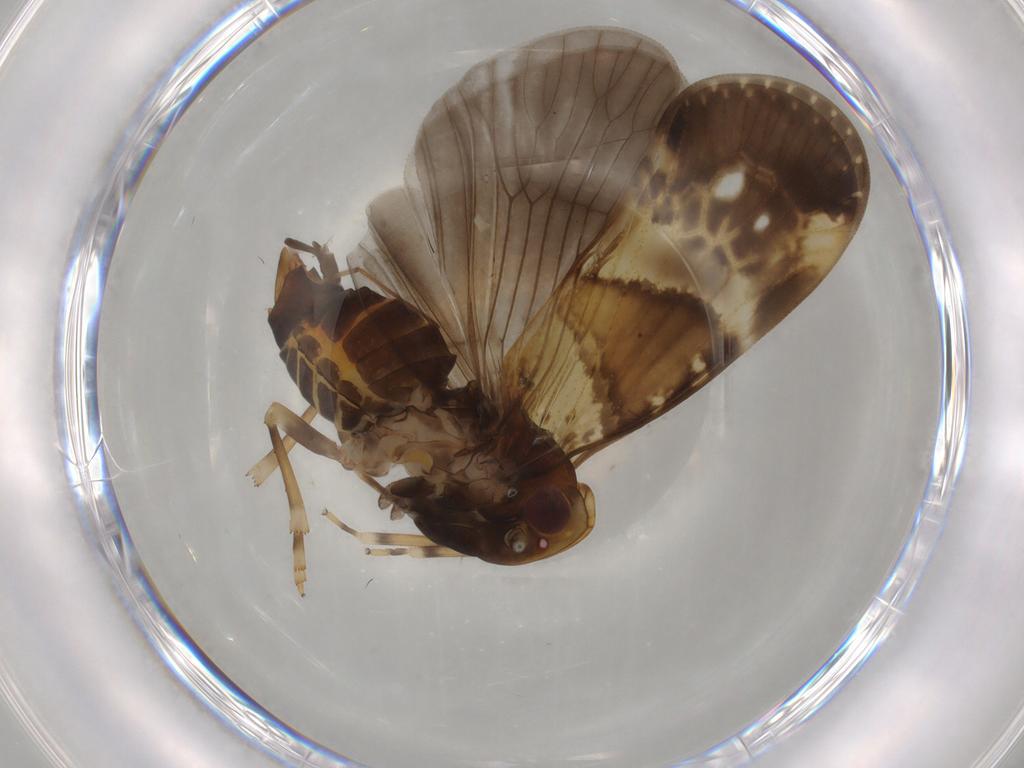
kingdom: Animalia
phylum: Arthropoda
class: Insecta
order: Hemiptera
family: Cixiidae
